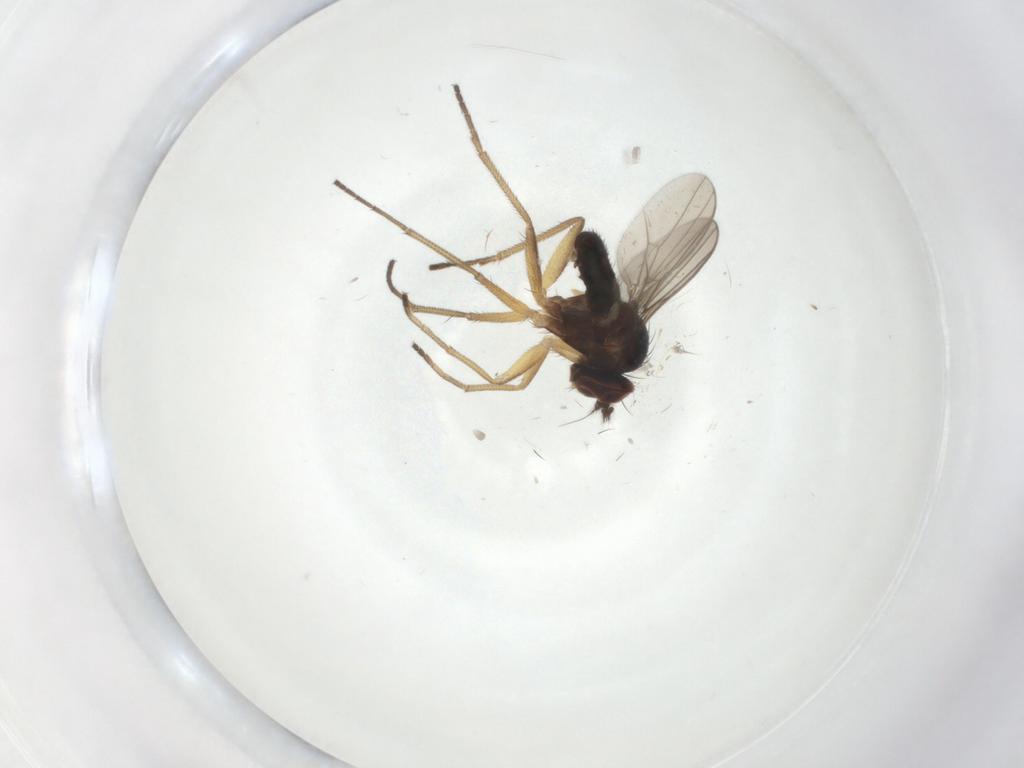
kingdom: Animalia
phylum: Arthropoda
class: Insecta
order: Diptera
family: Dolichopodidae
